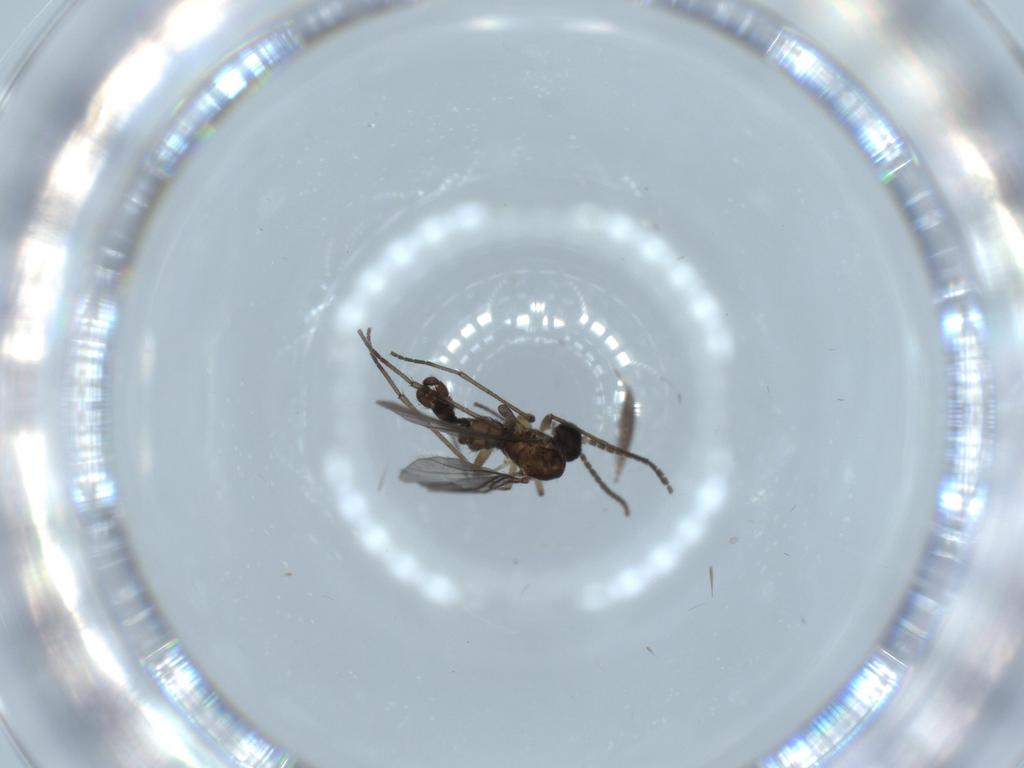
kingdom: Animalia
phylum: Arthropoda
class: Insecta
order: Diptera
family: Sciaridae
